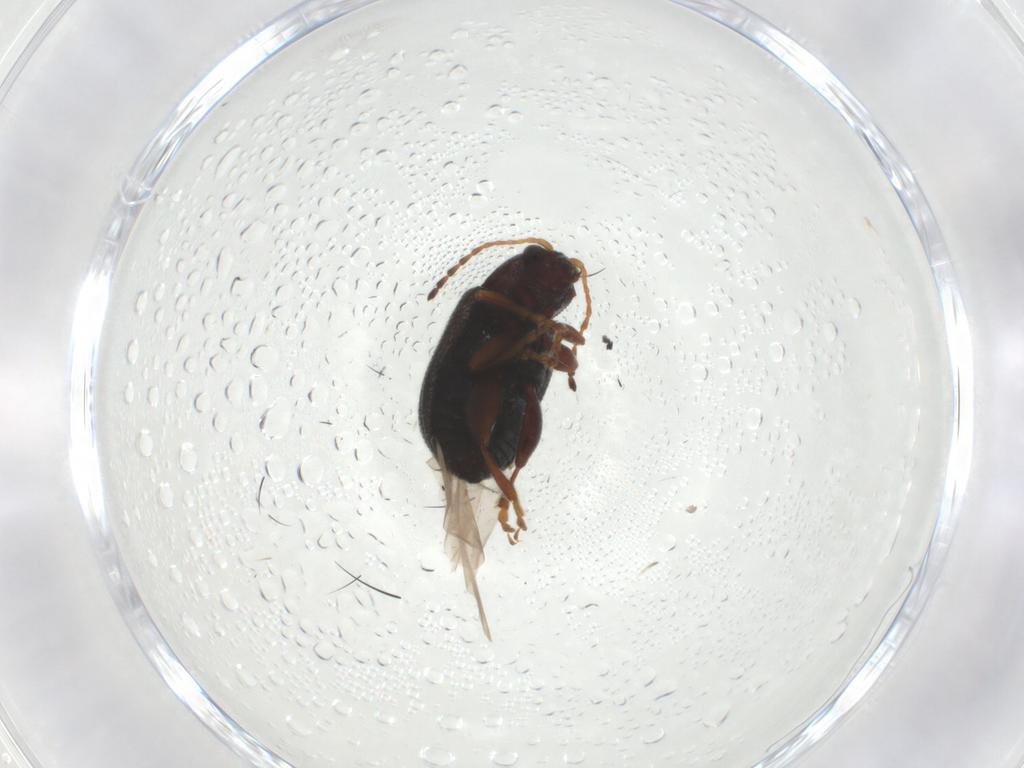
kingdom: Animalia
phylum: Arthropoda
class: Insecta
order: Coleoptera
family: Chrysomelidae
